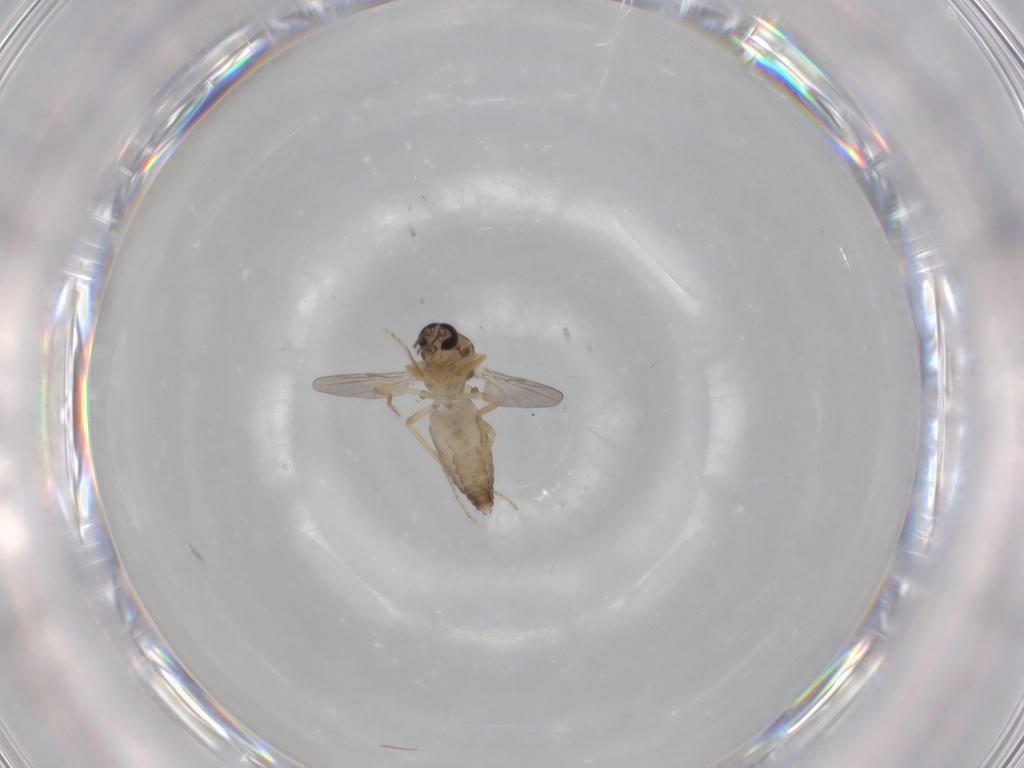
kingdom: Animalia
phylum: Arthropoda
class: Insecta
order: Diptera
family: Ceratopogonidae
